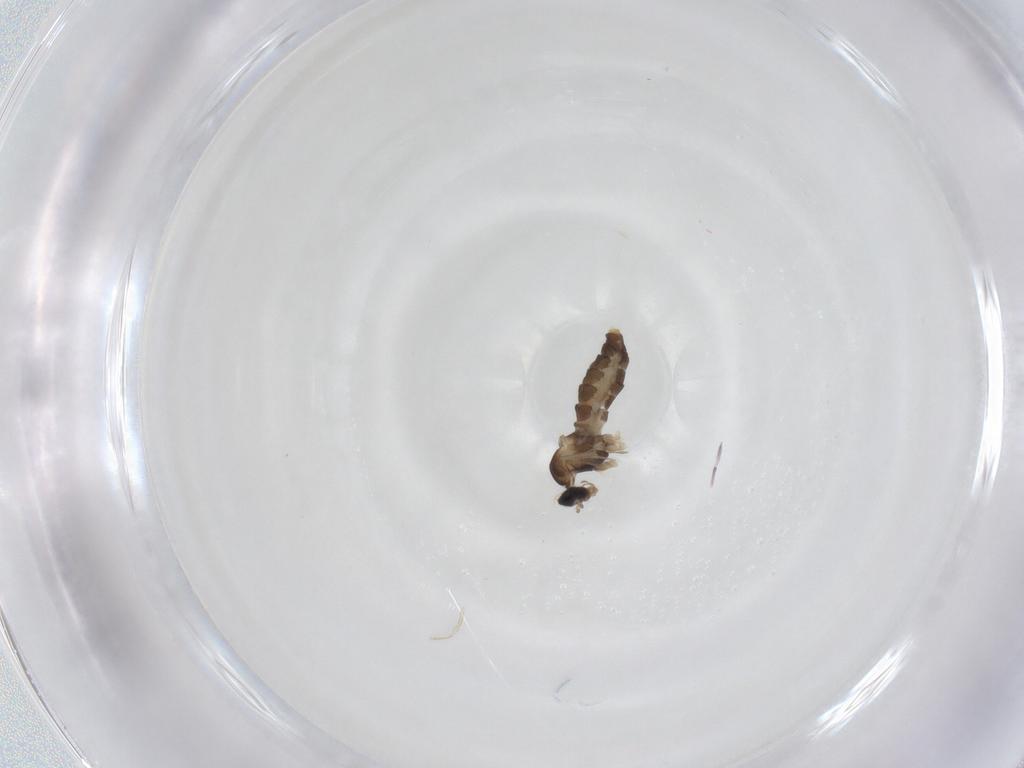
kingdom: Animalia
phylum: Arthropoda
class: Insecta
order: Diptera
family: Cecidomyiidae
